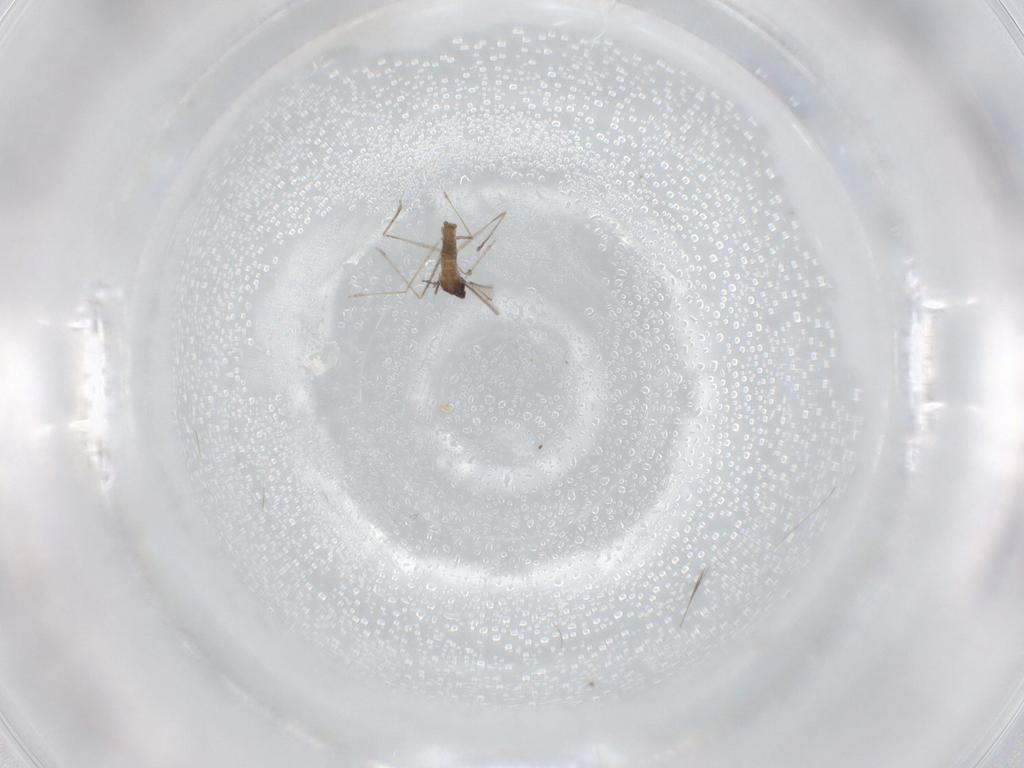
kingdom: Animalia
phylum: Arthropoda
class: Insecta
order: Diptera
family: Cecidomyiidae
